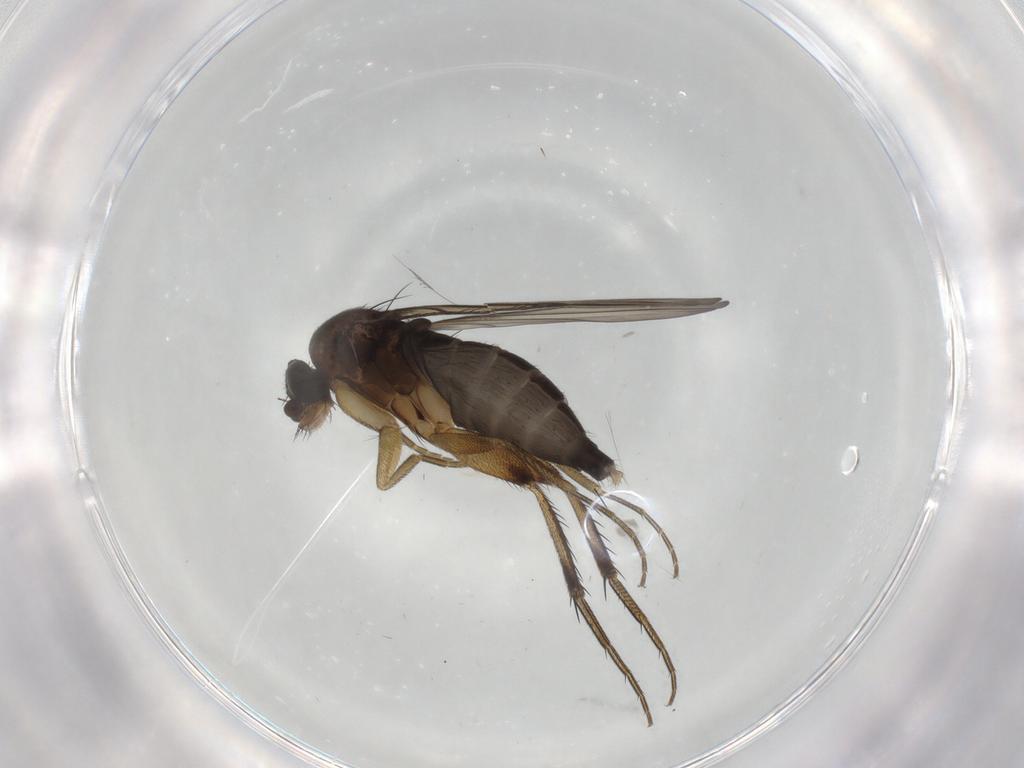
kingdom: Animalia
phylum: Arthropoda
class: Insecta
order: Diptera
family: Phoridae
